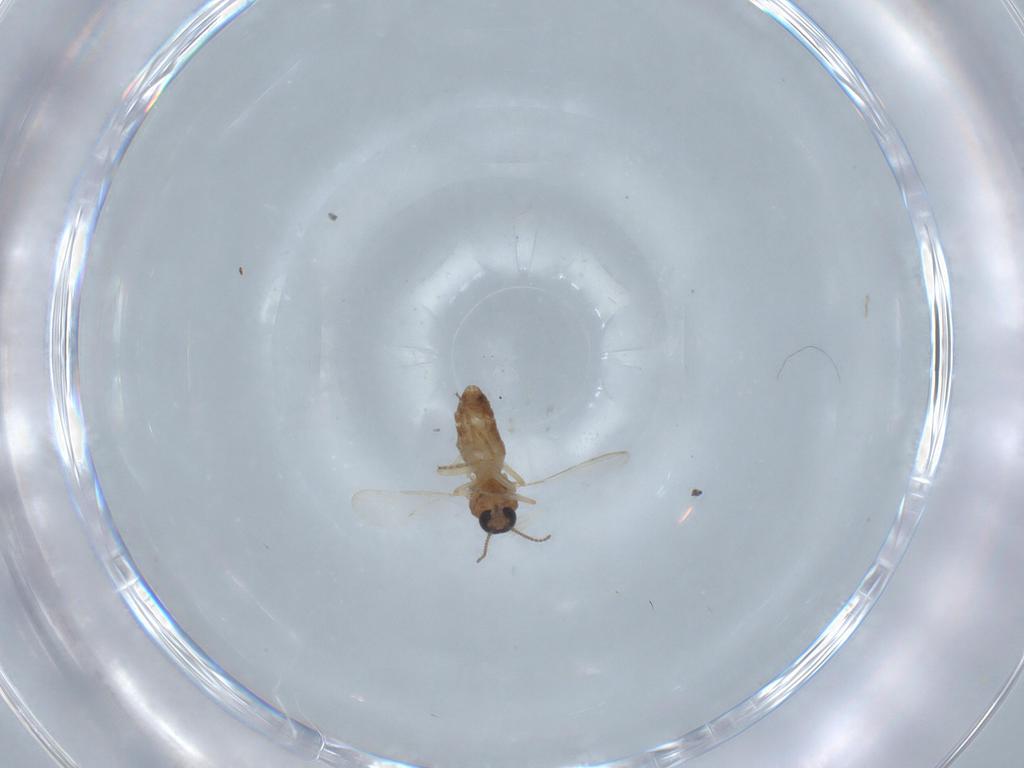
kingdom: Animalia
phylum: Arthropoda
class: Insecta
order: Diptera
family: Ceratopogonidae
